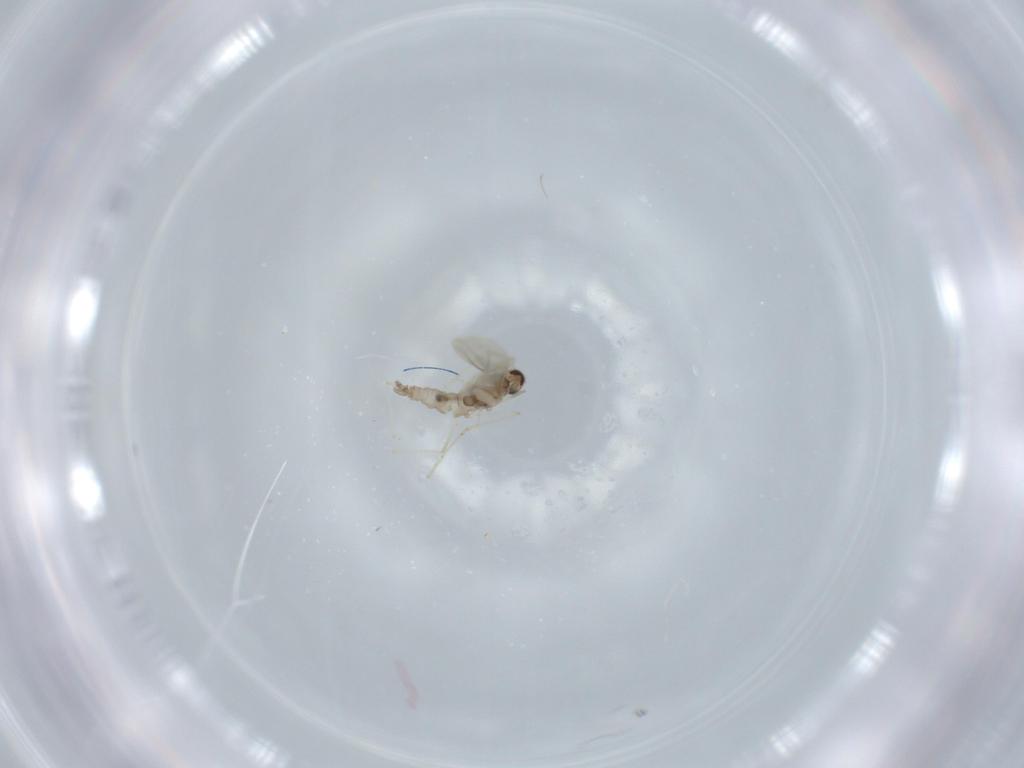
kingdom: Animalia
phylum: Arthropoda
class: Insecta
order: Diptera
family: Cecidomyiidae
